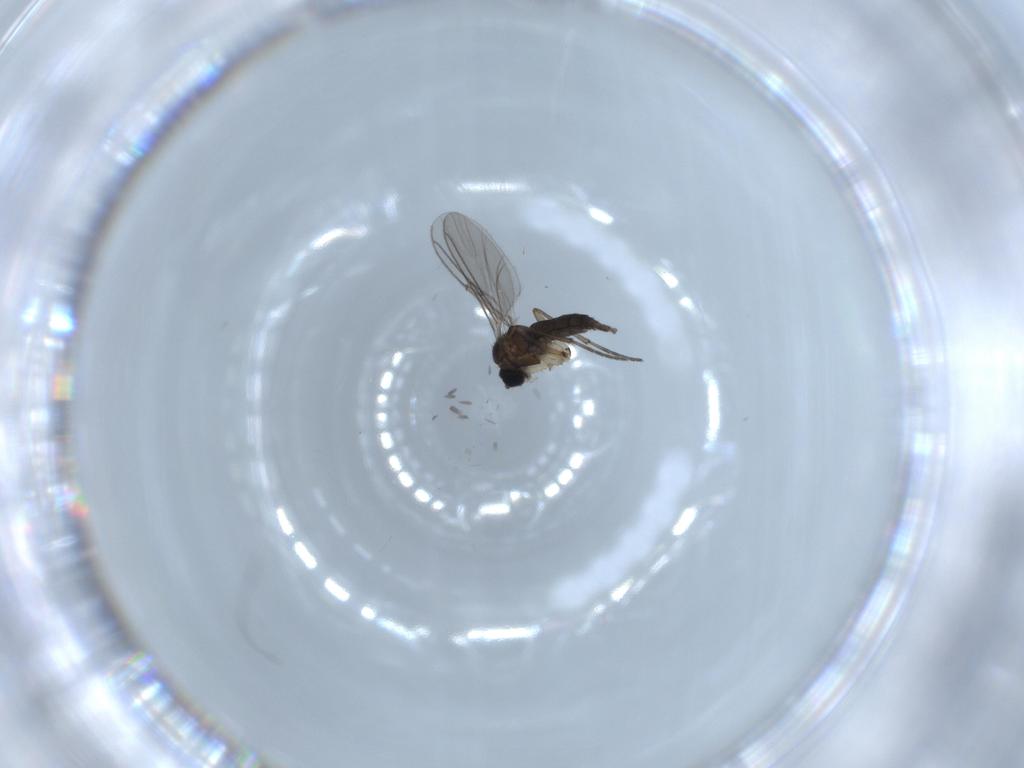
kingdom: Animalia
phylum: Arthropoda
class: Insecta
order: Diptera
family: Sciaridae
